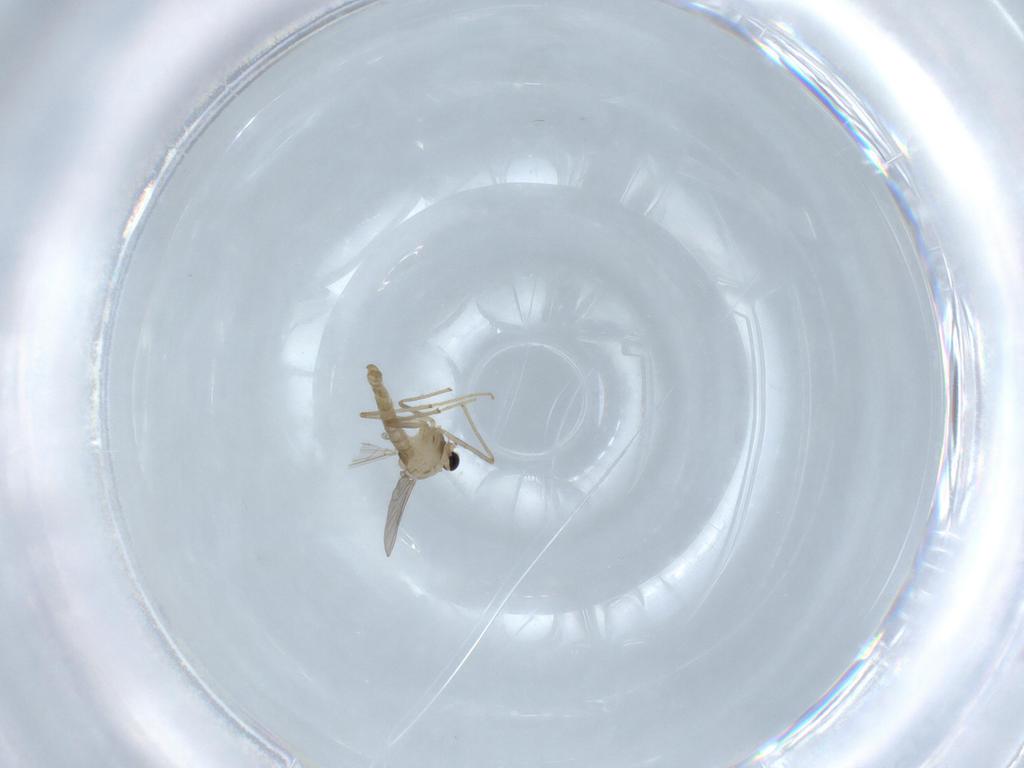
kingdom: Animalia
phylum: Arthropoda
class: Insecta
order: Diptera
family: Chironomidae
